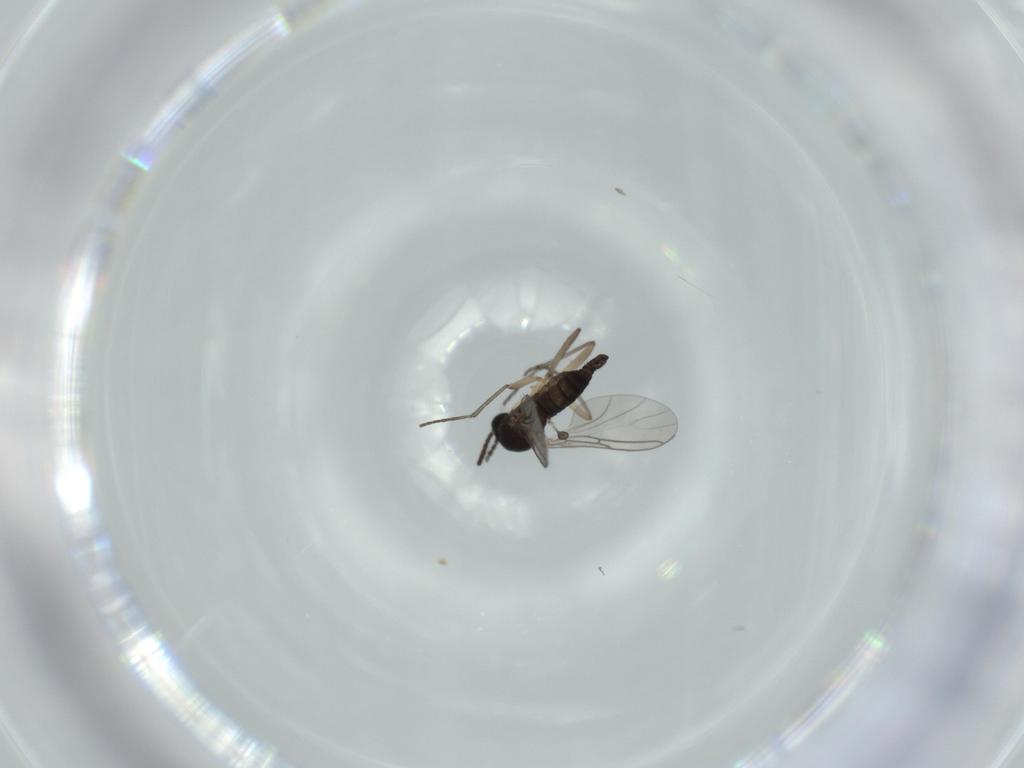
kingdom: Animalia
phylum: Arthropoda
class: Insecta
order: Diptera
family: Sciaridae
